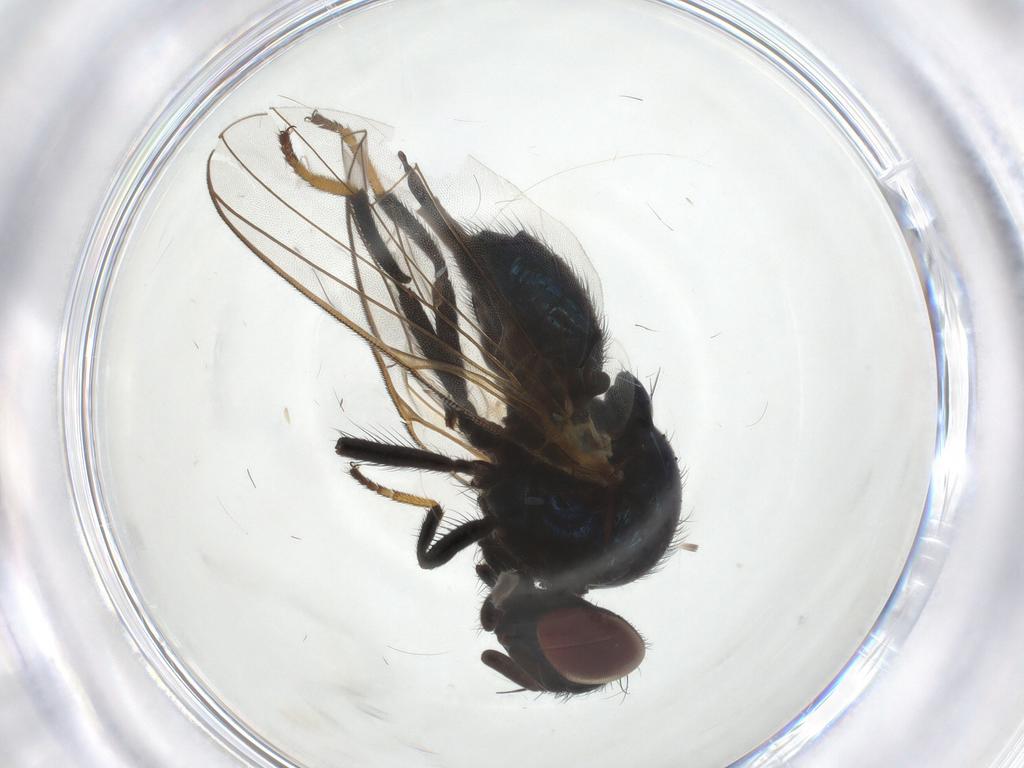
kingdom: Animalia
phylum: Arthropoda
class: Insecta
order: Diptera
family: Lonchaeidae
